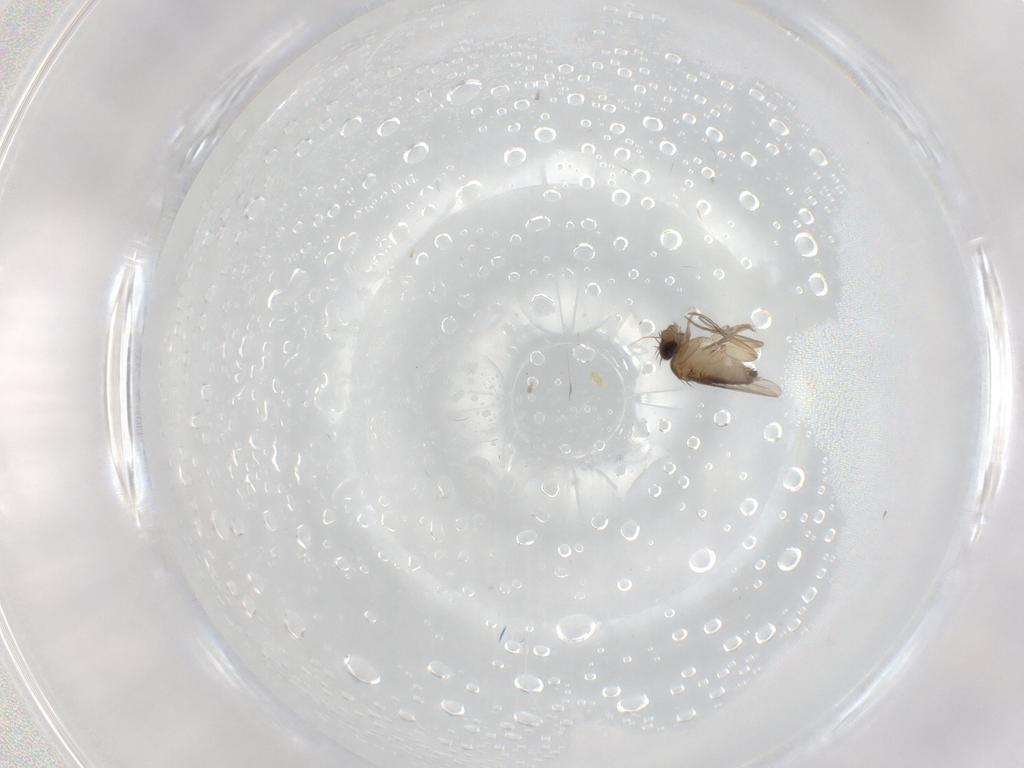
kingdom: Animalia
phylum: Arthropoda
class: Insecta
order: Diptera
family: Phoridae
